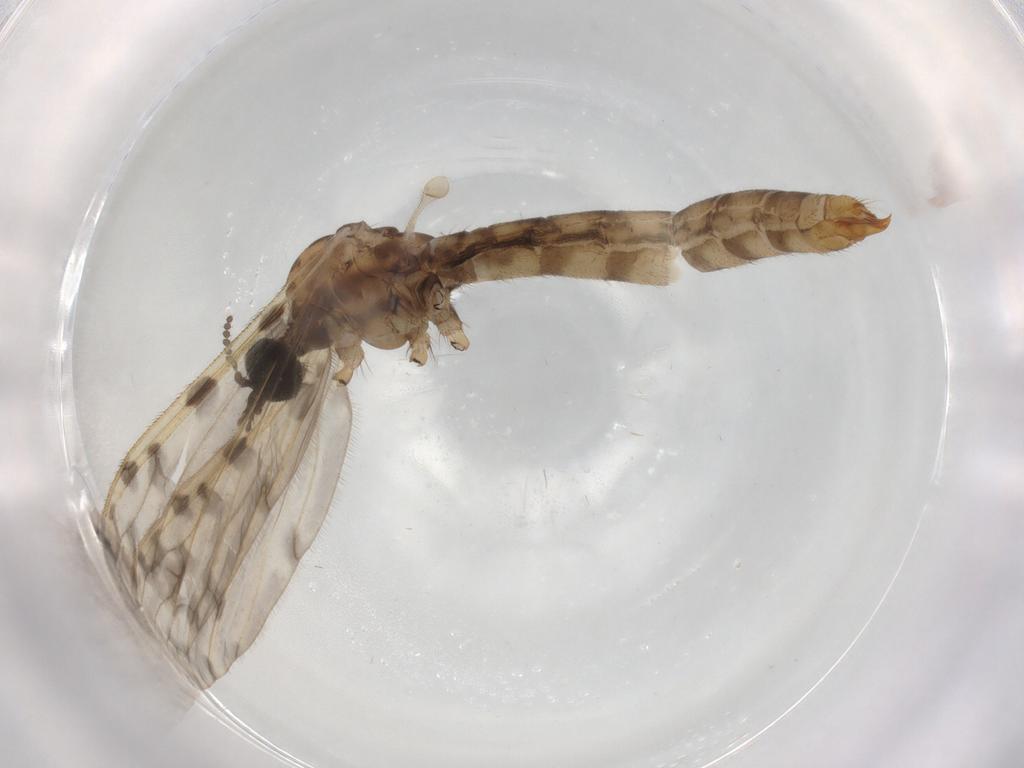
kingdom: Animalia
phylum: Arthropoda
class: Insecta
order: Diptera
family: Limoniidae
